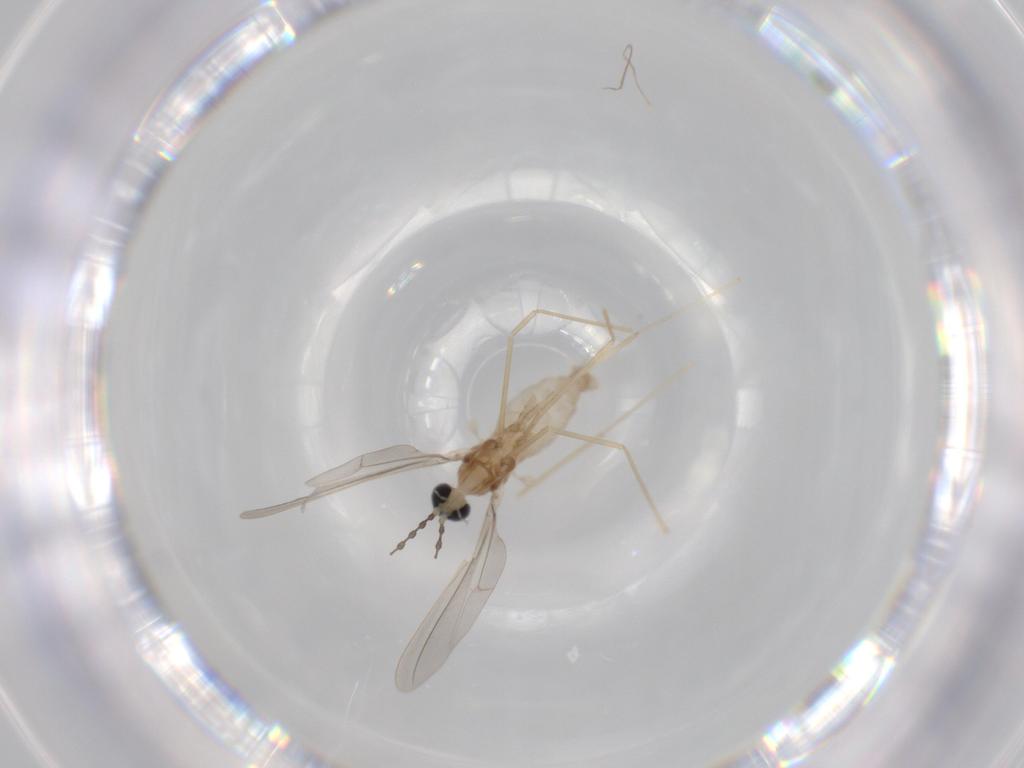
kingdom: Animalia
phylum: Arthropoda
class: Insecta
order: Diptera
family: Cecidomyiidae
